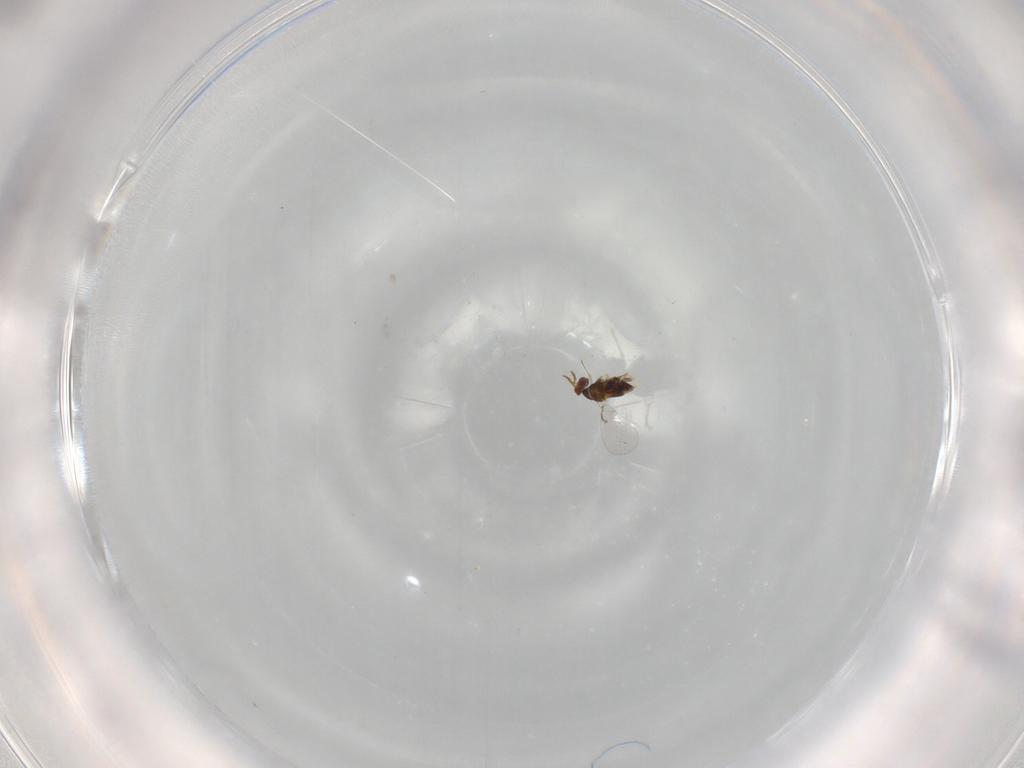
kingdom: Animalia
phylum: Arthropoda
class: Insecta
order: Hymenoptera
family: Trichogrammatidae
